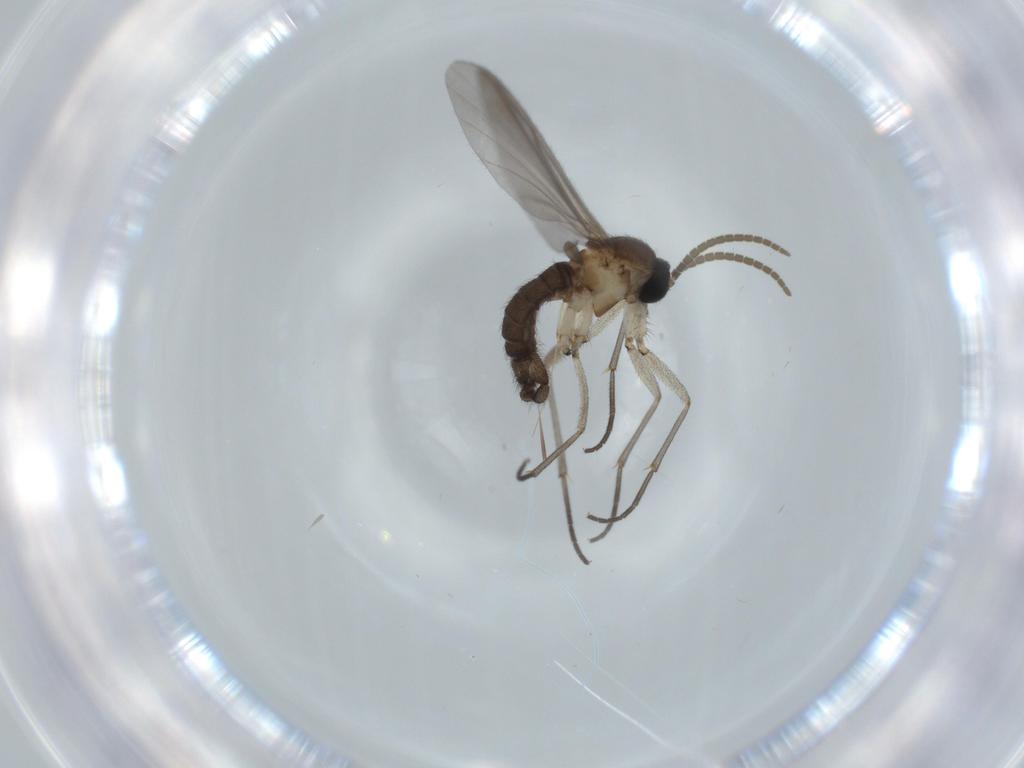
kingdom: Animalia
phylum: Arthropoda
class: Insecta
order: Diptera
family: Sciaridae
